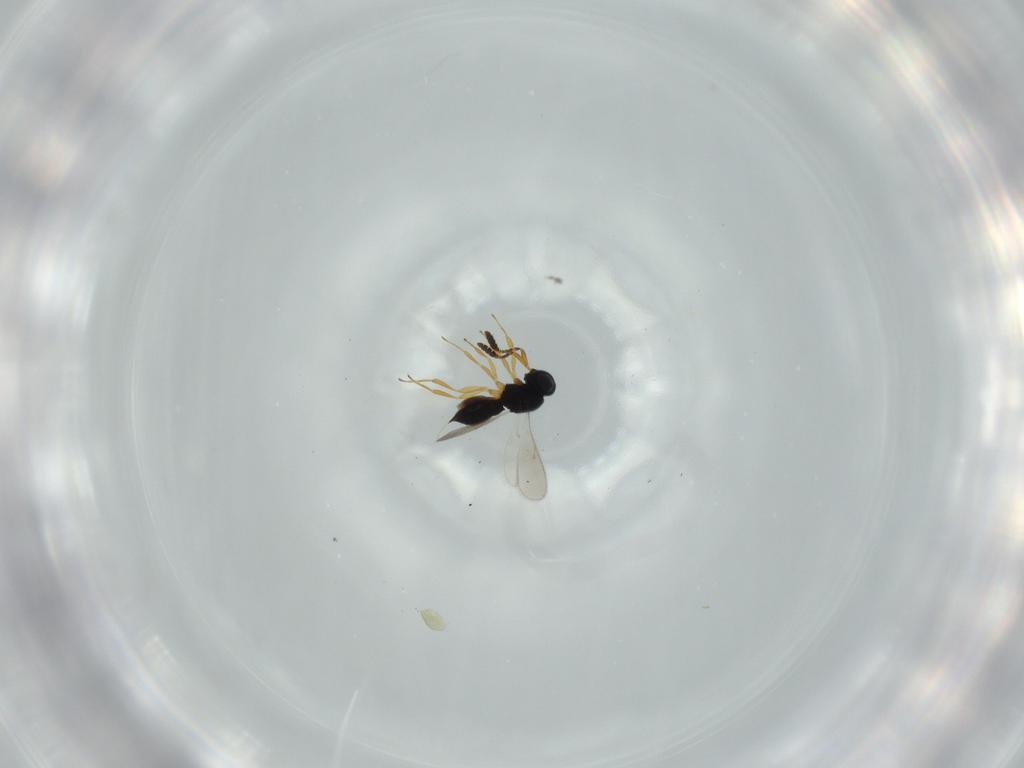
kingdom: Animalia
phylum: Arthropoda
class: Insecta
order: Hymenoptera
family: Scelionidae
